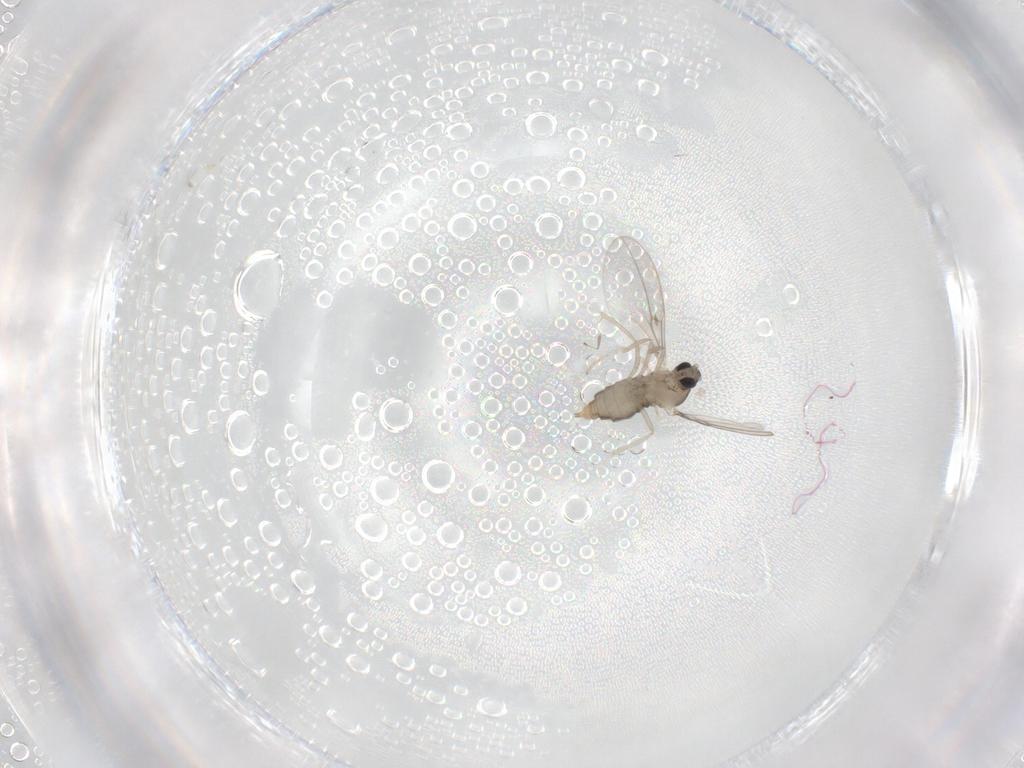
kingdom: Animalia
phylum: Arthropoda
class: Insecta
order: Diptera
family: Cecidomyiidae
